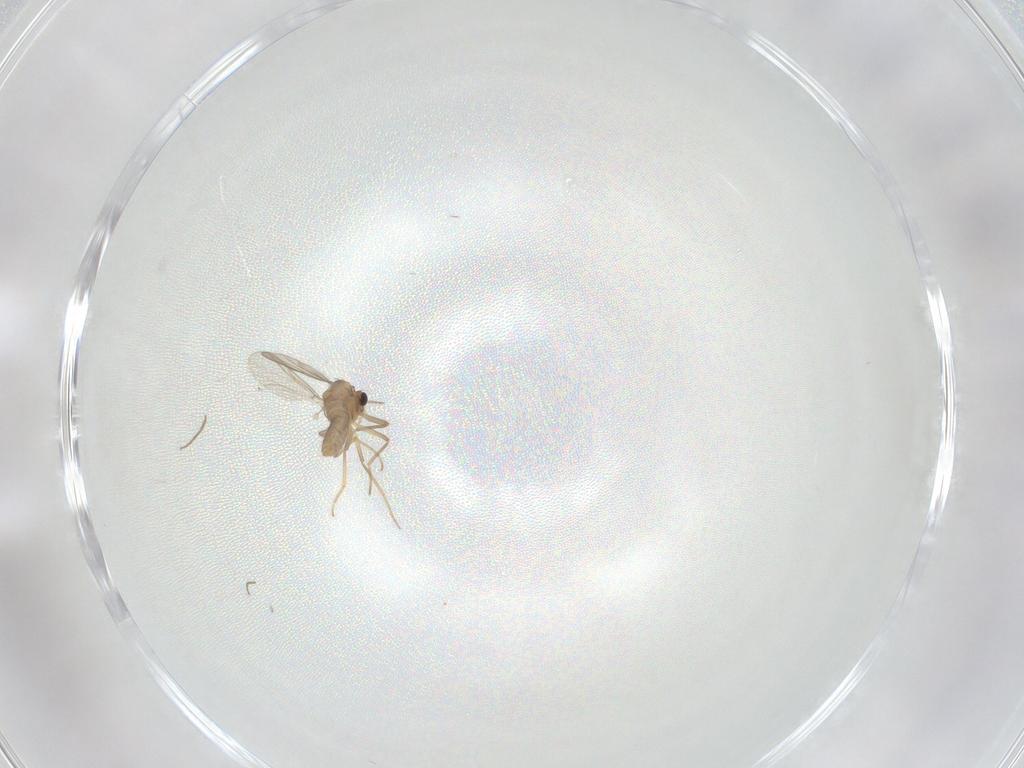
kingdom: Animalia
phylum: Arthropoda
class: Insecta
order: Diptera
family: Chironomidae
